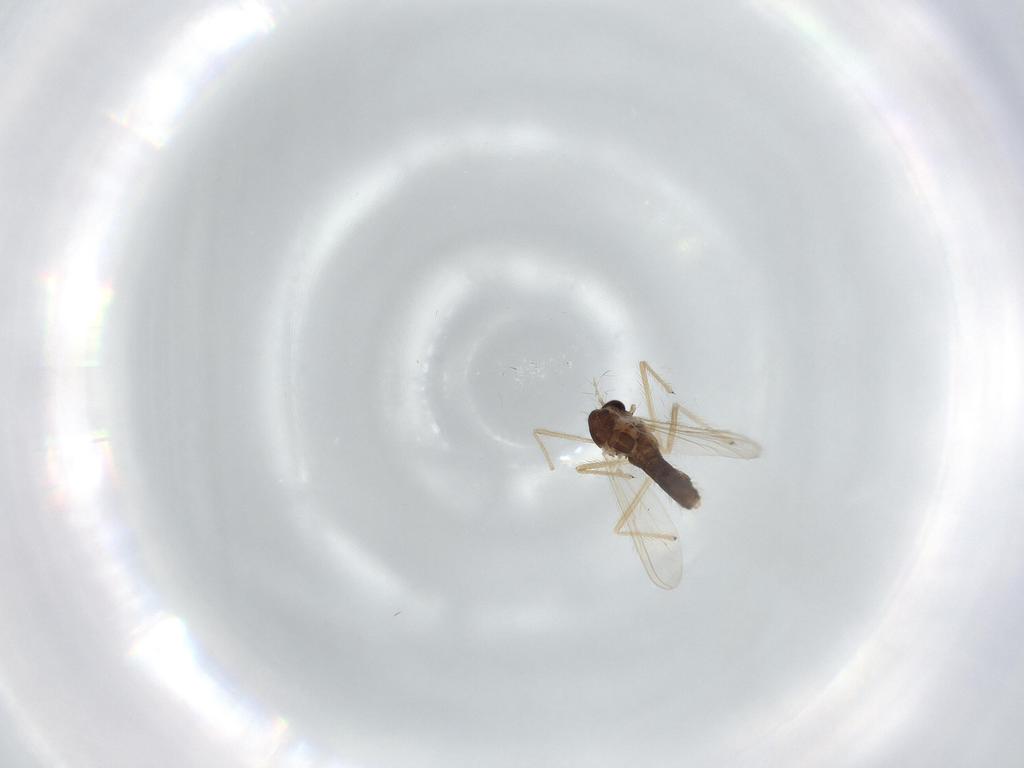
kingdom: Animalia
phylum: Arthropoda
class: Insecta
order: Diptera
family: Chironomidae
